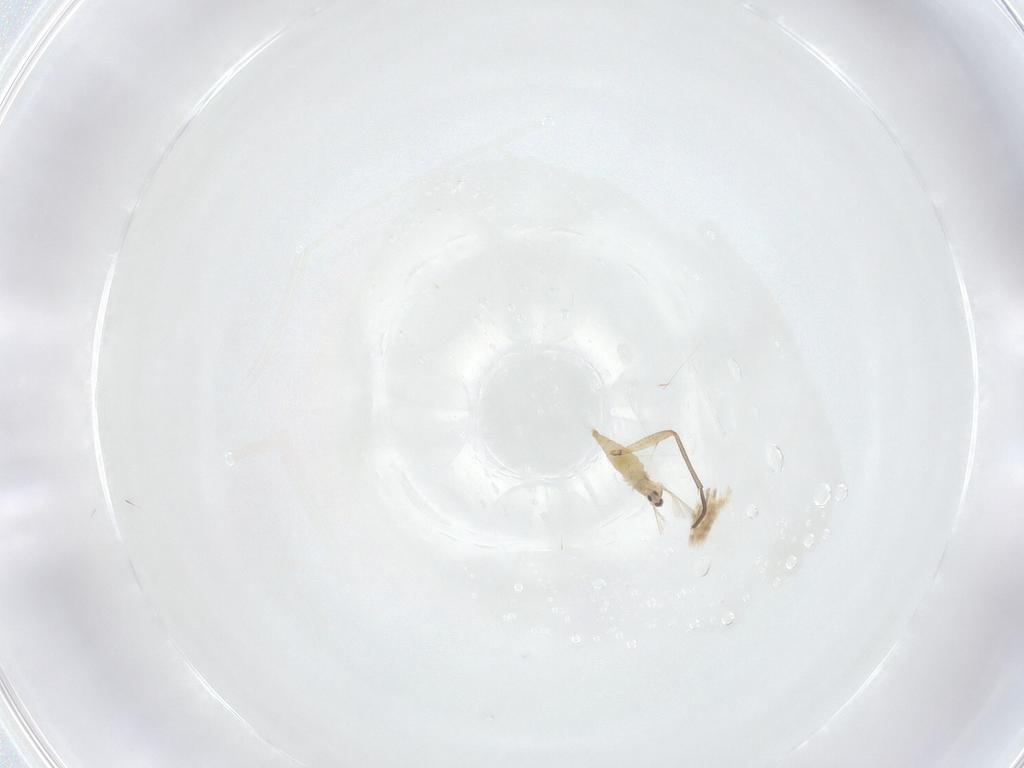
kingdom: Animalia
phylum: Arthropoda
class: Insecta
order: Diptera
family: Cecidomyiidae
